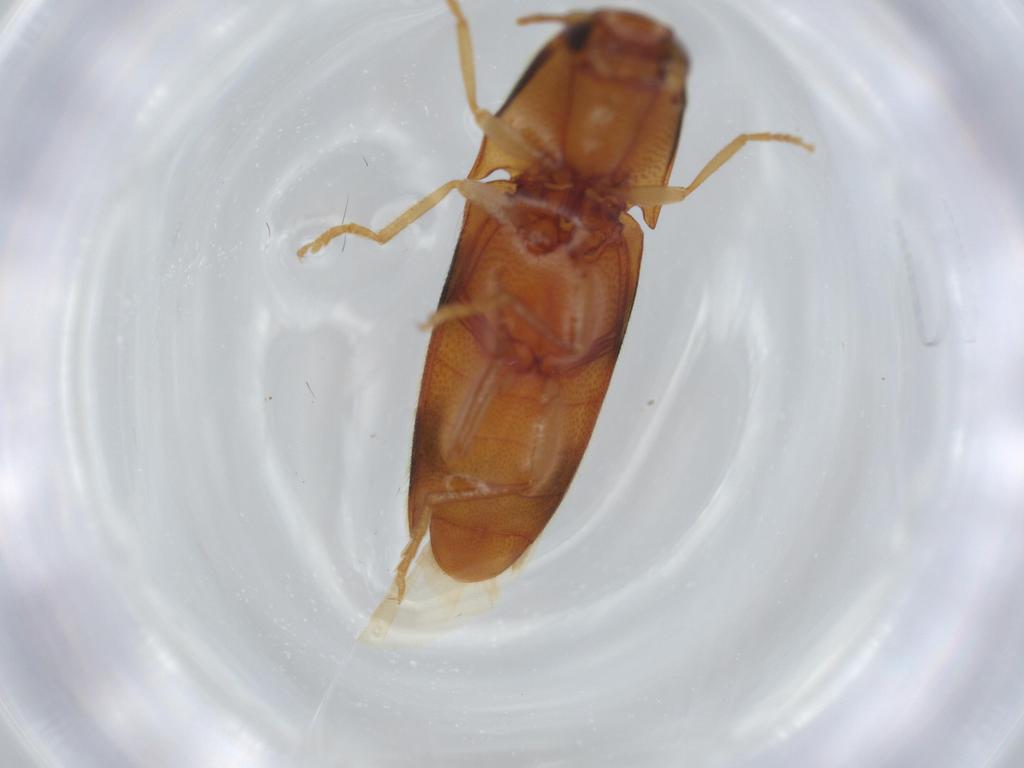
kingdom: Animalia
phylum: Arthropoda
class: Insecta
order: Coleoptera
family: Elateridae
